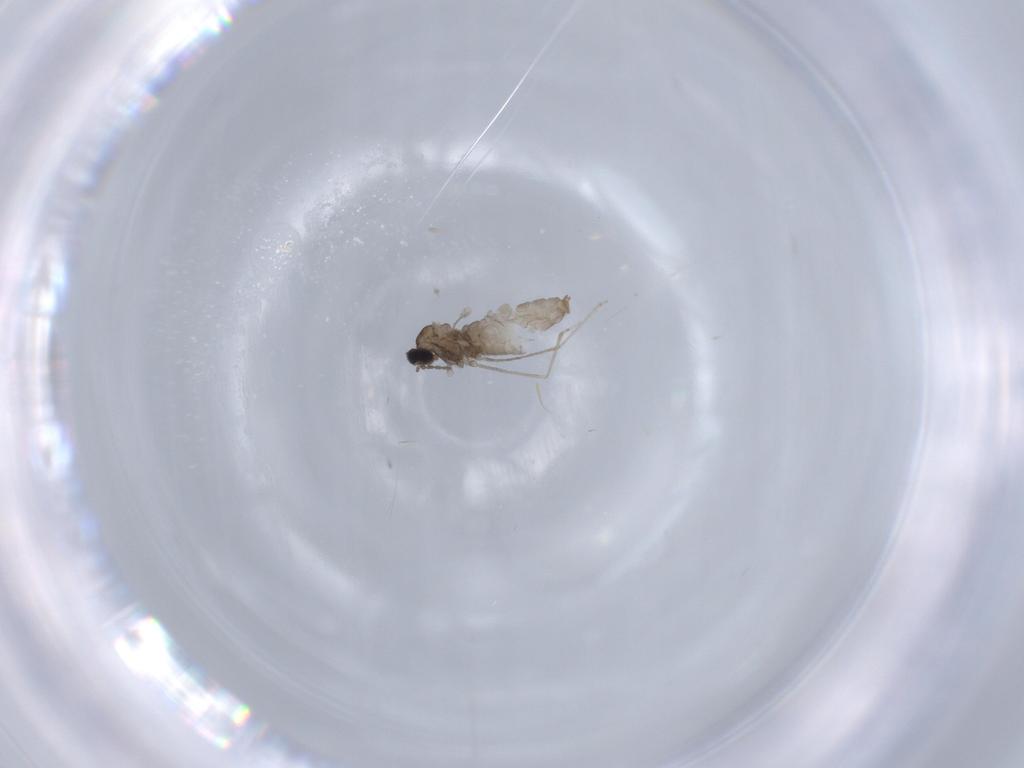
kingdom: Animalia
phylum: Arthropoda
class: Insecta
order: Diptera
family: Cecidomyiidae
